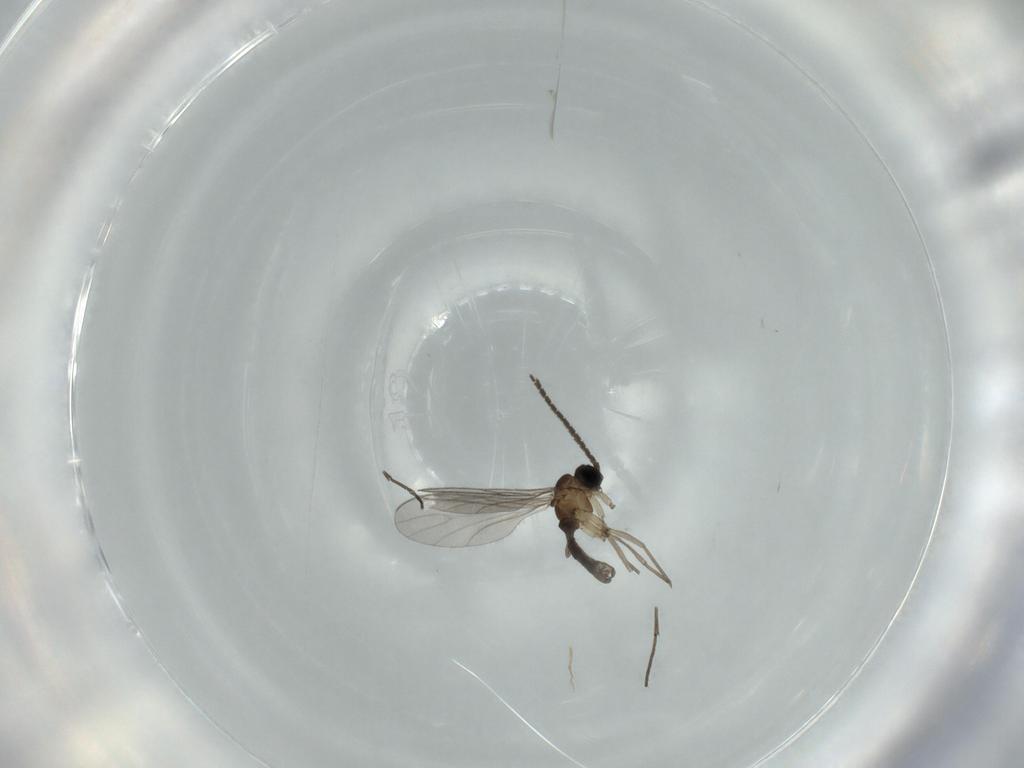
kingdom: Animalia
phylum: Arthropoda
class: Insecta
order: Diptera
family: Sciaridae
